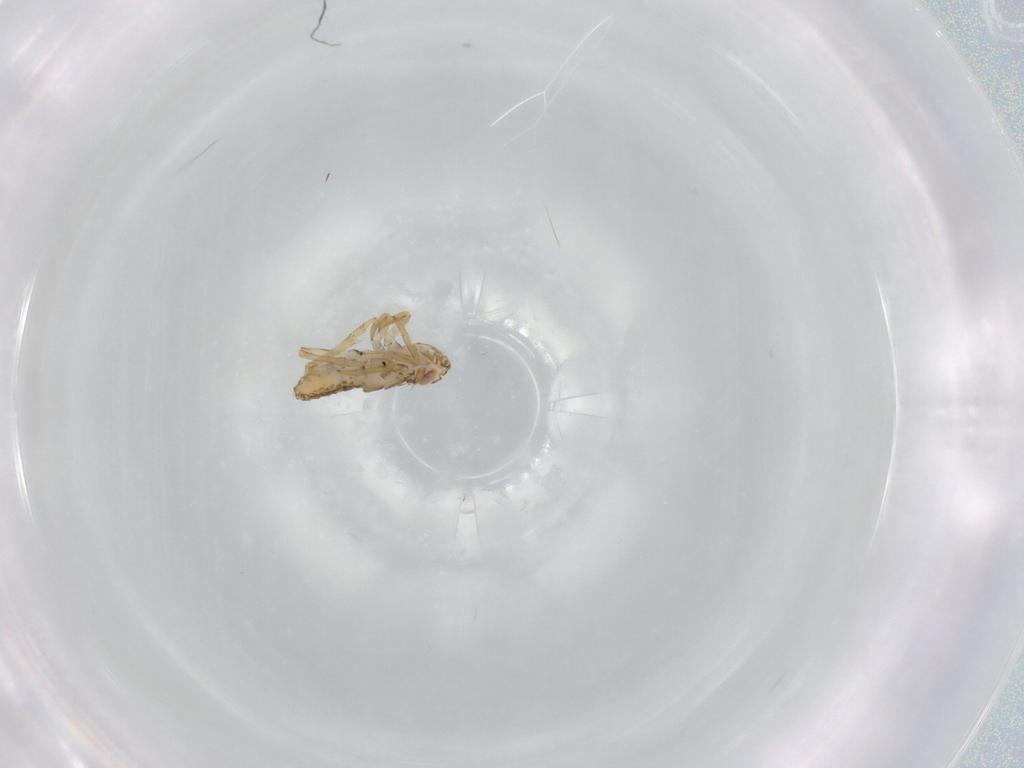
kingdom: Animalia
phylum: Arthropoda
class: Insecta
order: Hemiptera
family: Delphacidae
